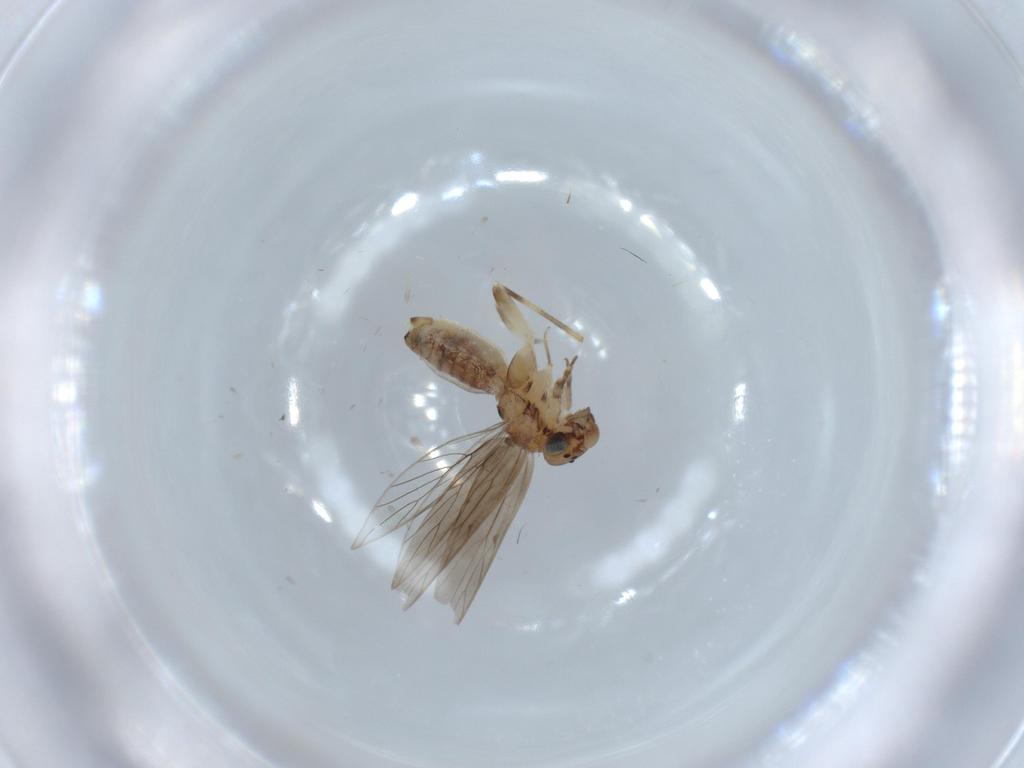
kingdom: Animalia
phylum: Arthropoda
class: Insecta
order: Psocodea
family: Lepidopsocidae
